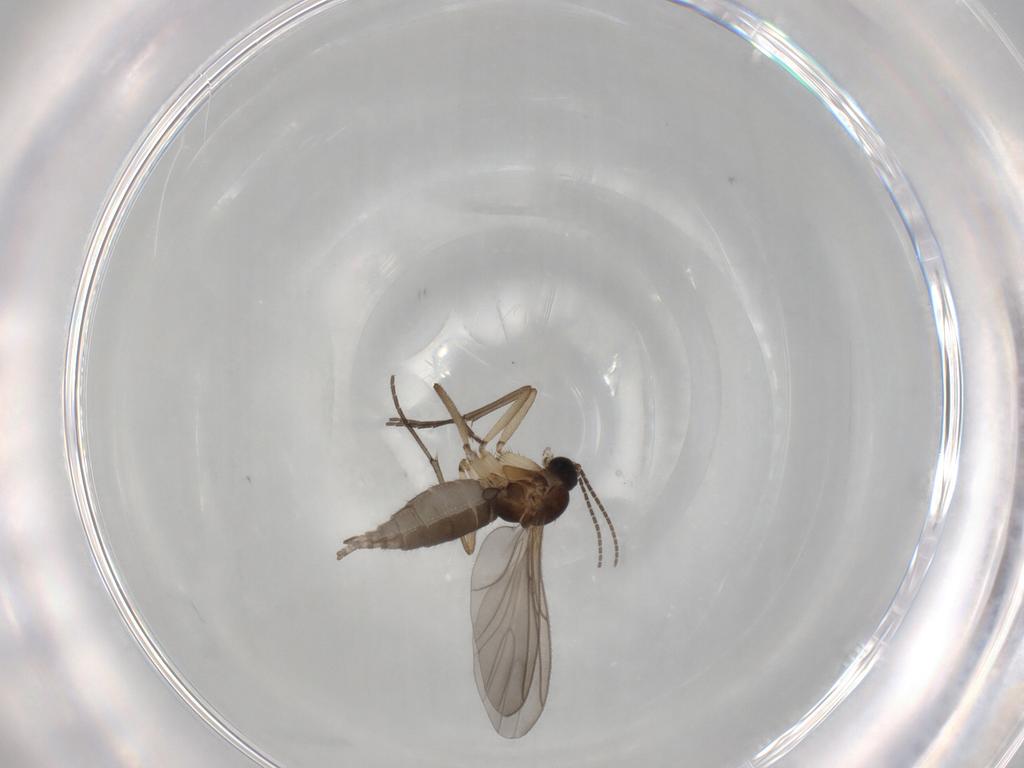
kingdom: Animalia
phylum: Arthropoda
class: Insecta
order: Diptera
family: Sciaridae
